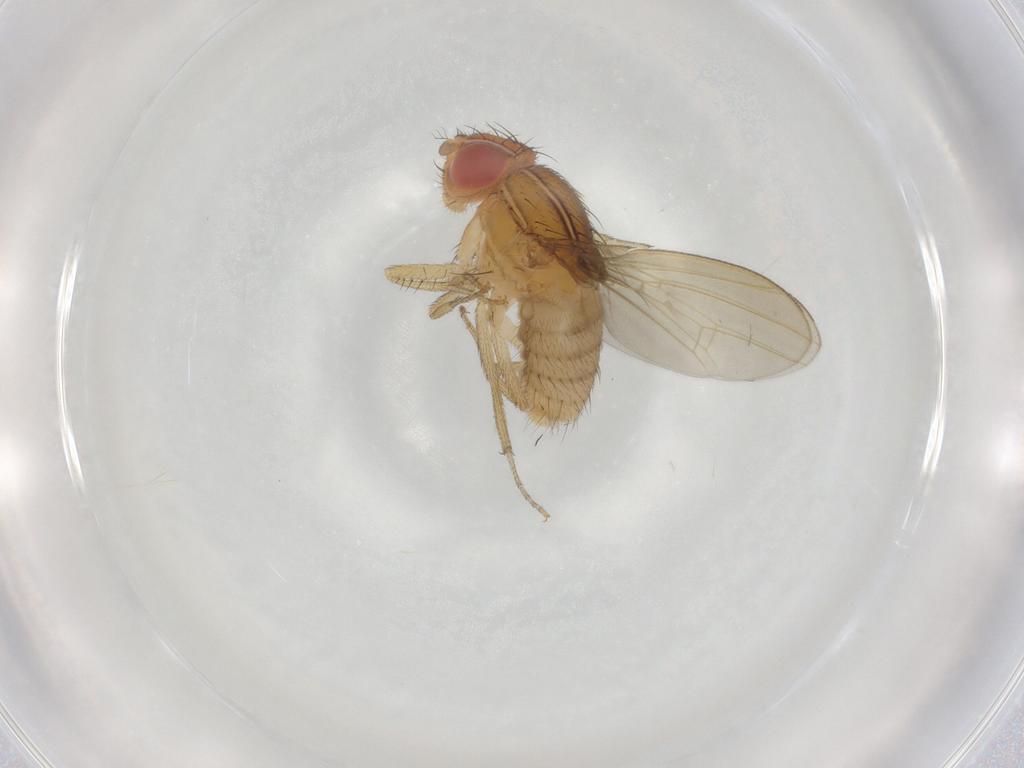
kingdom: Animalia
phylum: Arthropoda
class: Insecta
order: Diptera
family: Drosophilidae
